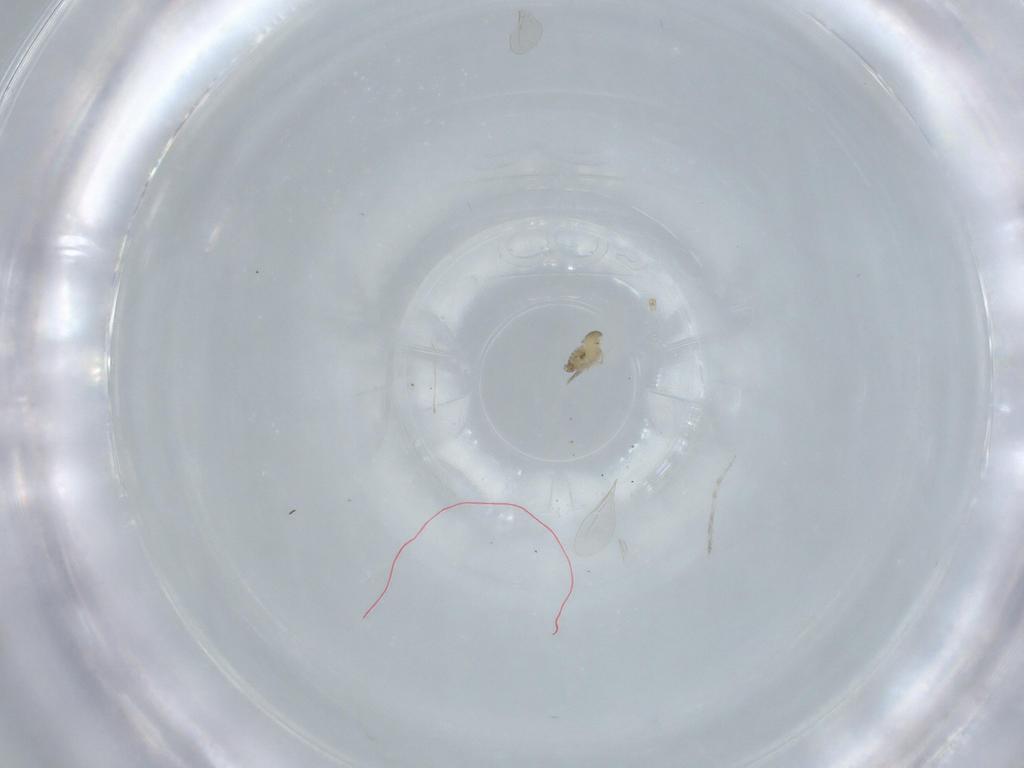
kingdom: Animalia
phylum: Arthropoda
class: Insecta
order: Diptera
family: Cecidomyiidae
